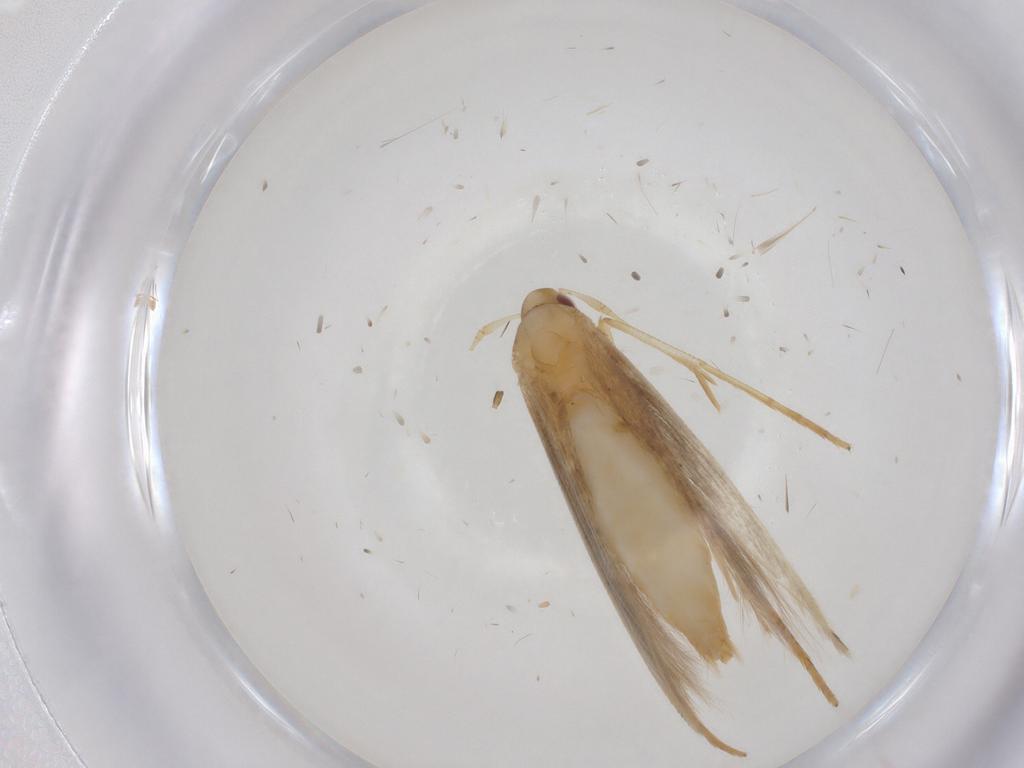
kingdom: Animalia
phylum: Arthropoda
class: Insecta
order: Lepidoptera
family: Cosmopterigidae
